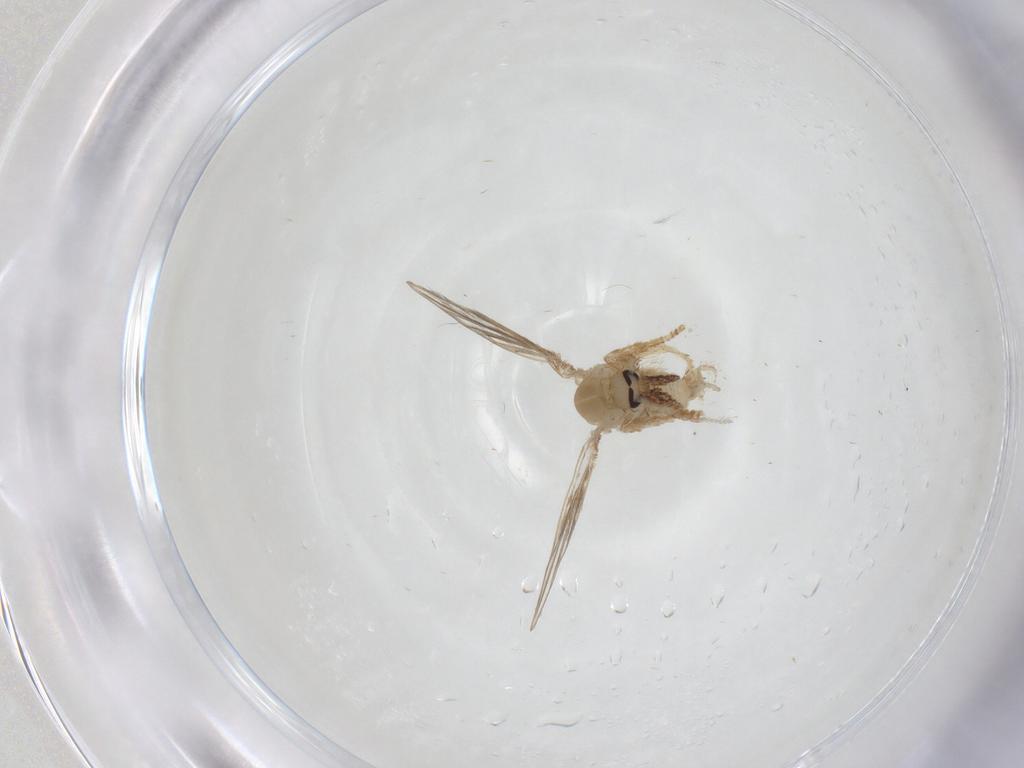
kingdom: Animalia
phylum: Arthropoda
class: Insecta
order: Diptera
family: Psychodidae
